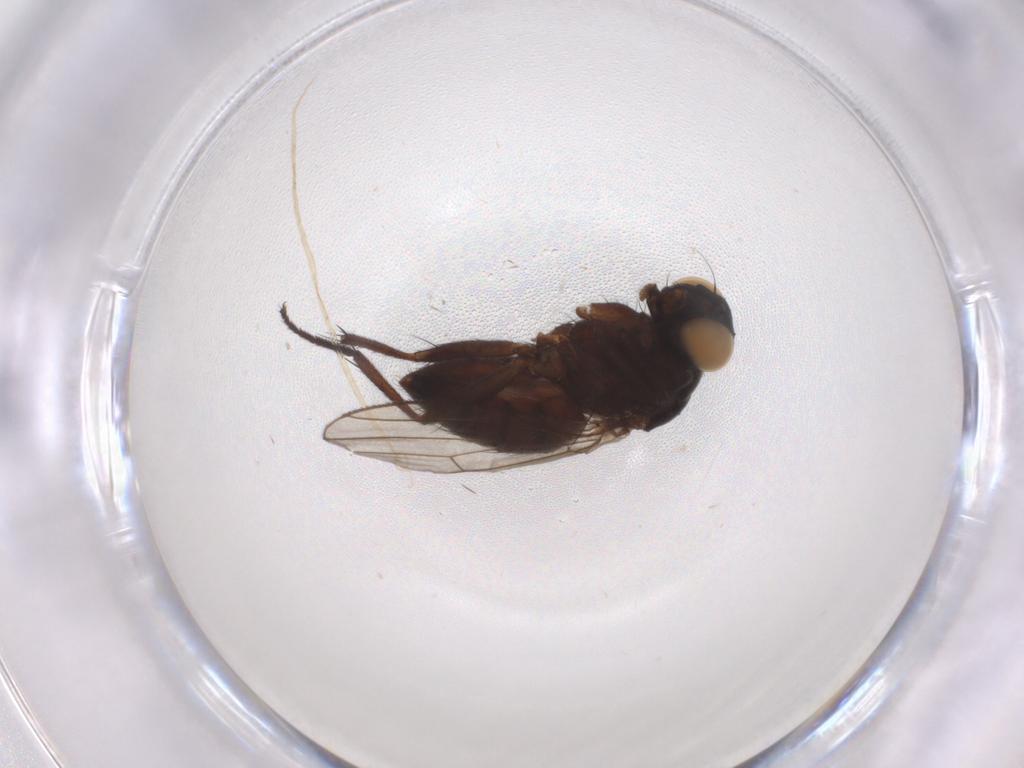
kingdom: Animalia
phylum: Arthropoda
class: Insecta
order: Diptera
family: Muscidae
